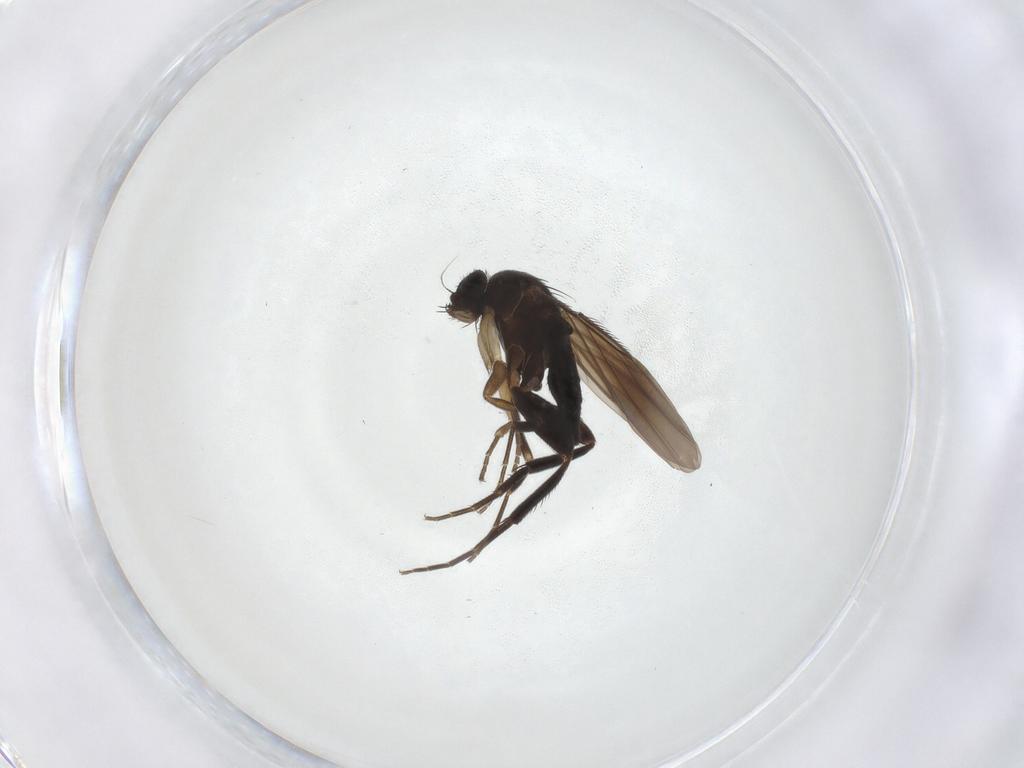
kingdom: Animalia
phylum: Arthropoda
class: Insecta
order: Diptera
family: Phoridae
